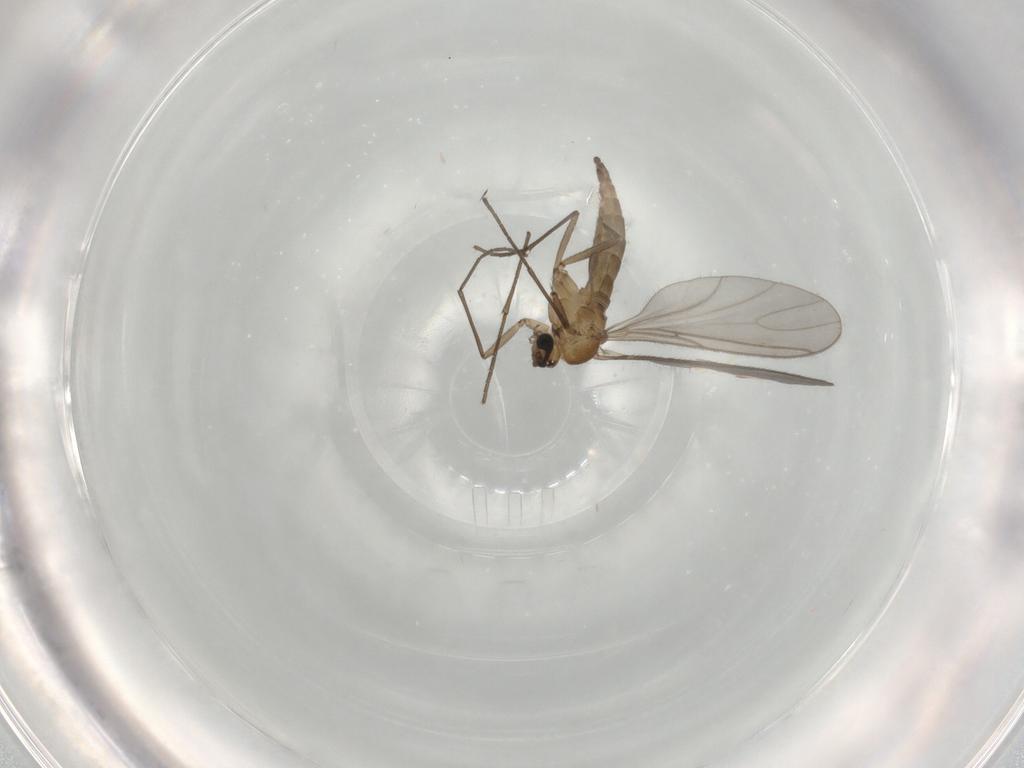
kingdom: Animalia
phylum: Arthropoda
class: Insecta
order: Diptera
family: Sciaridae
